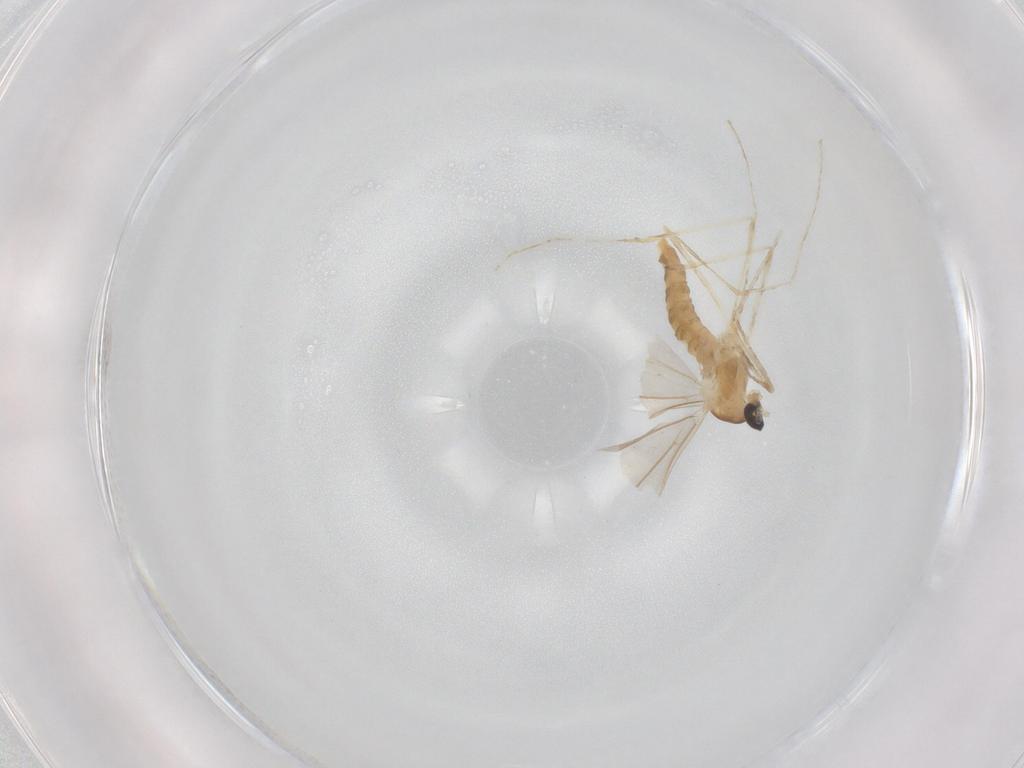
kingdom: Animalia
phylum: Arthropoda
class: Insecta
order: Diptera
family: Cecidomyiidae
